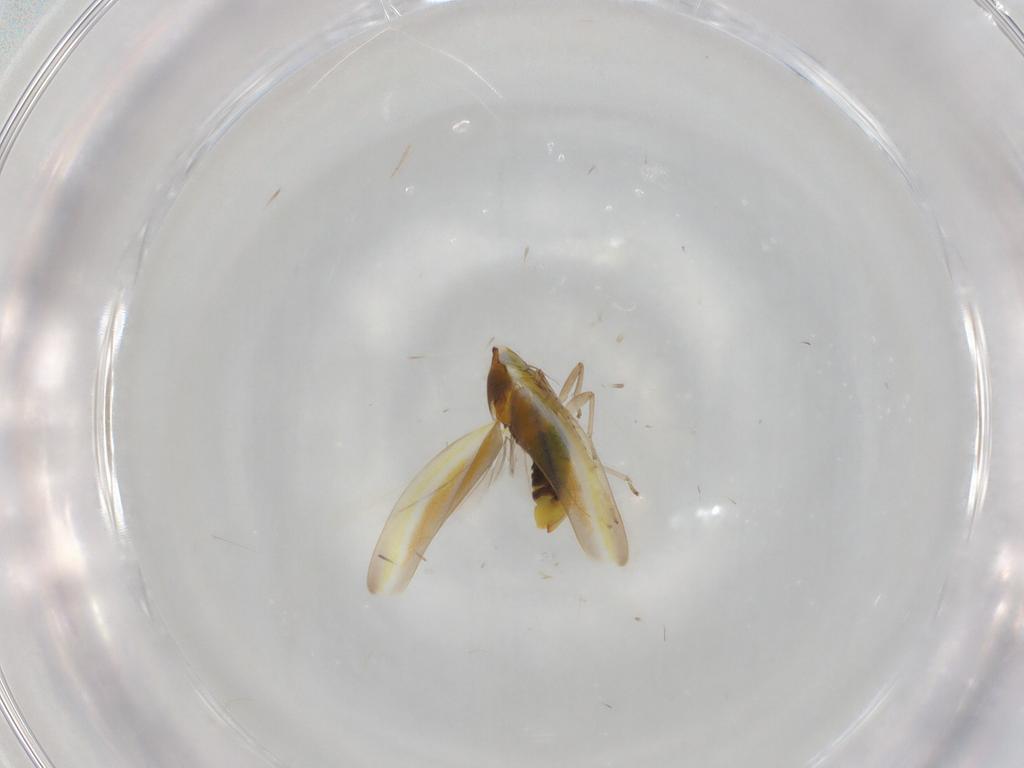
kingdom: Animalia
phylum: Arthropoda
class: Insecta
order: Hemiptera
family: Cicadellidae
